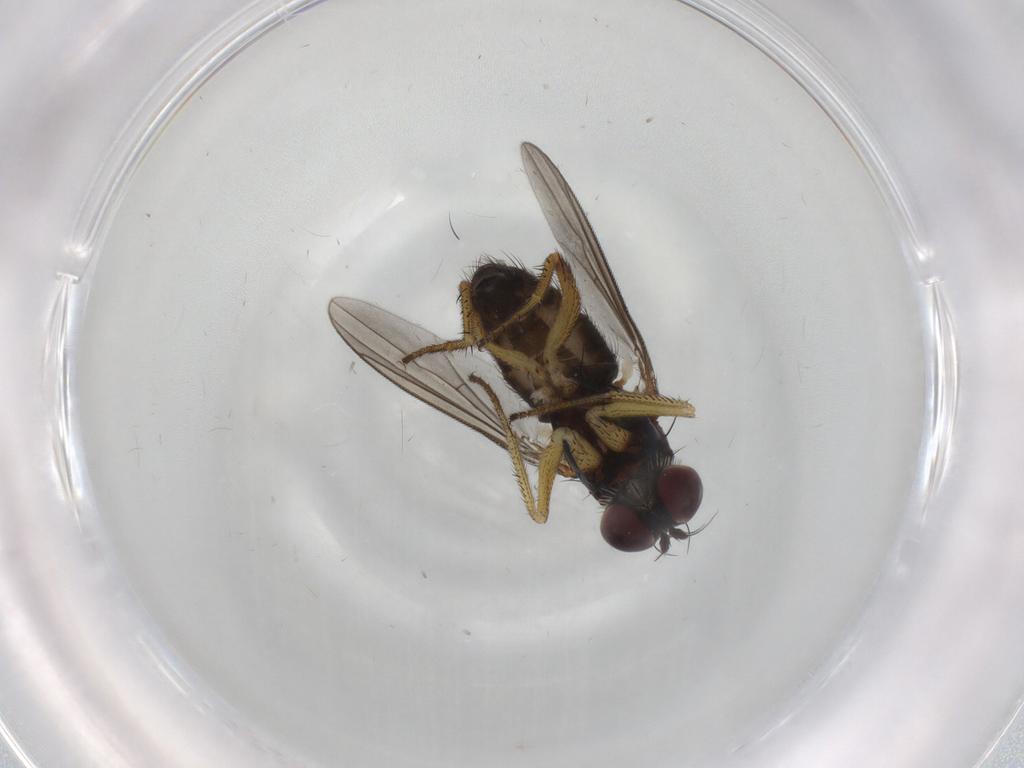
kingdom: Animalia
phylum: Arthropoda
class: Insecta
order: Diptera
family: Dolichopodidae
